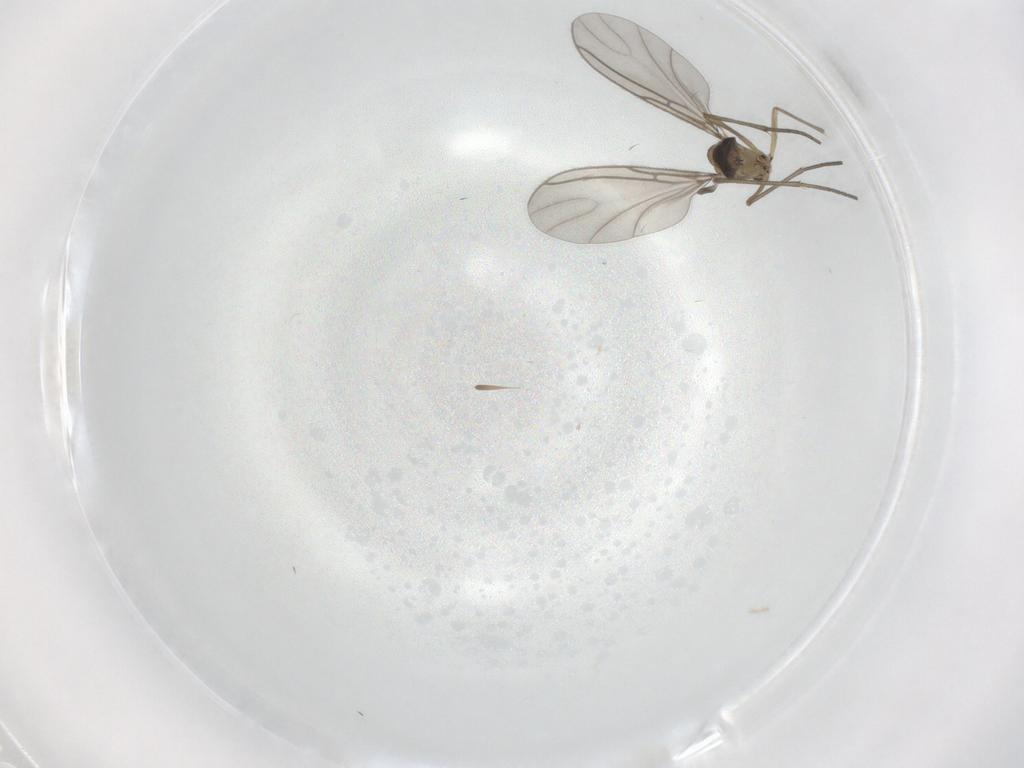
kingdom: Animalia
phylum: Arthropoda
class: Insecta
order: Diptera
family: Sciaridae
